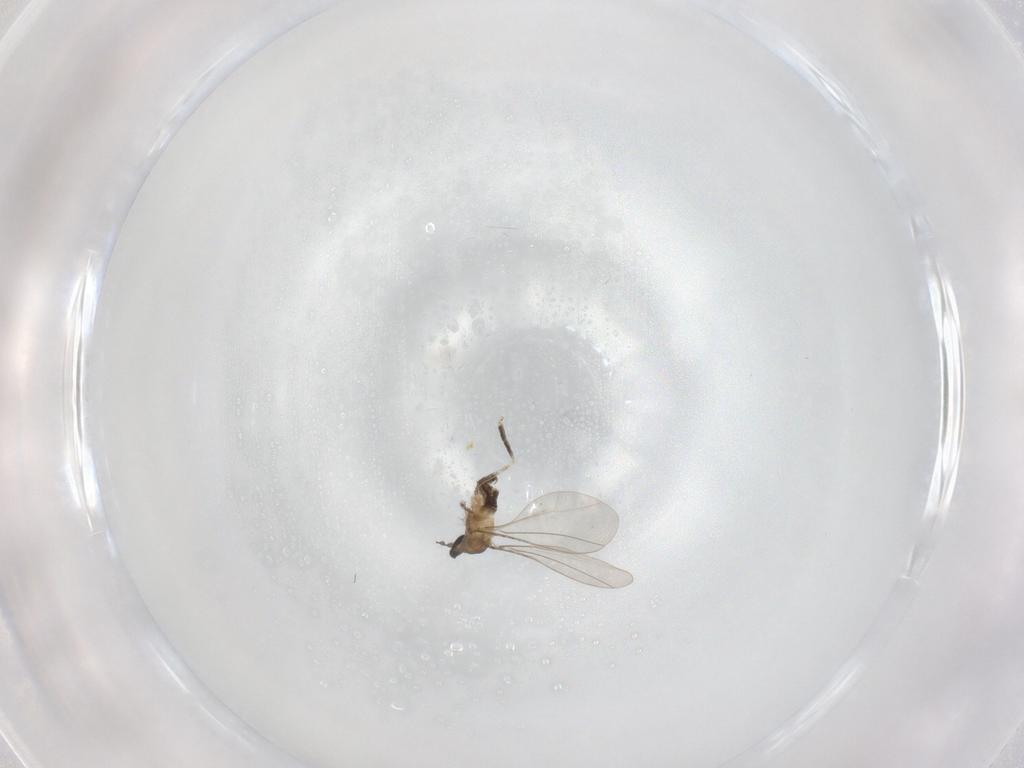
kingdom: Animalia
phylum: Arthropoda
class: Insecta
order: Diptera
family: Cecidomyiidae
